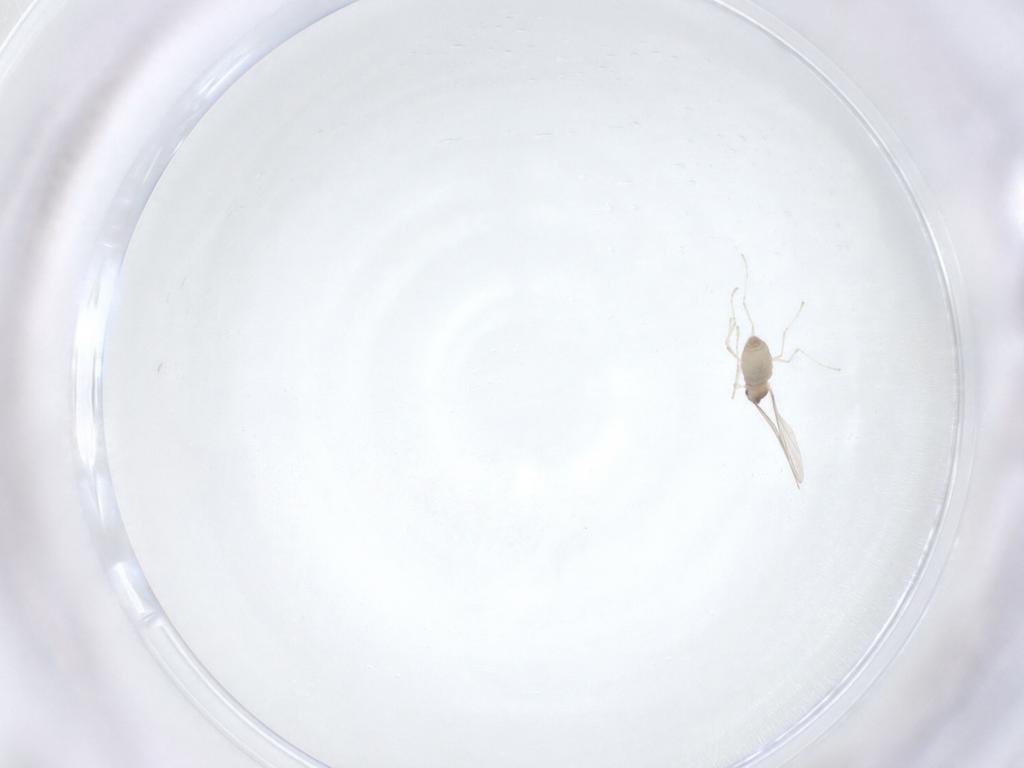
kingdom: Animalia
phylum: Arthropoda
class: Insecta
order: Diptera
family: Cecidomyiidae
